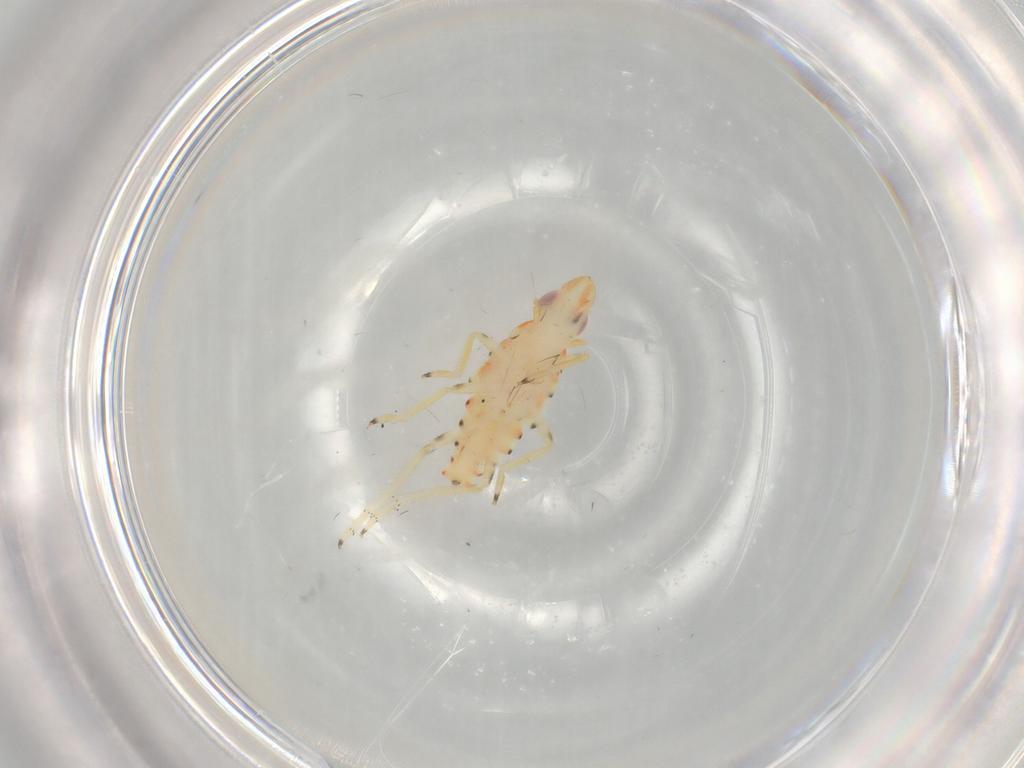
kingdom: Animalia
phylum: Arthropoda
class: Insecta
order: Hemiptera
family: Tropiduchidae
